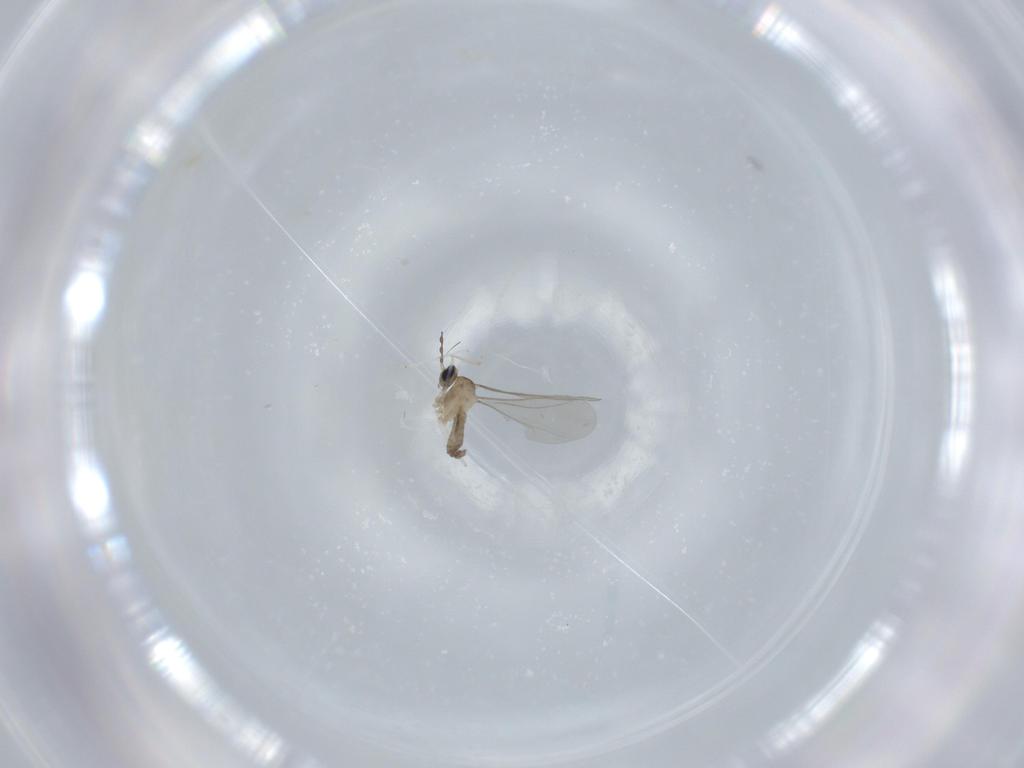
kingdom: Animalia
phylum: Arthropoda
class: Insecta
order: Diptera
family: Cecidomyiidae
